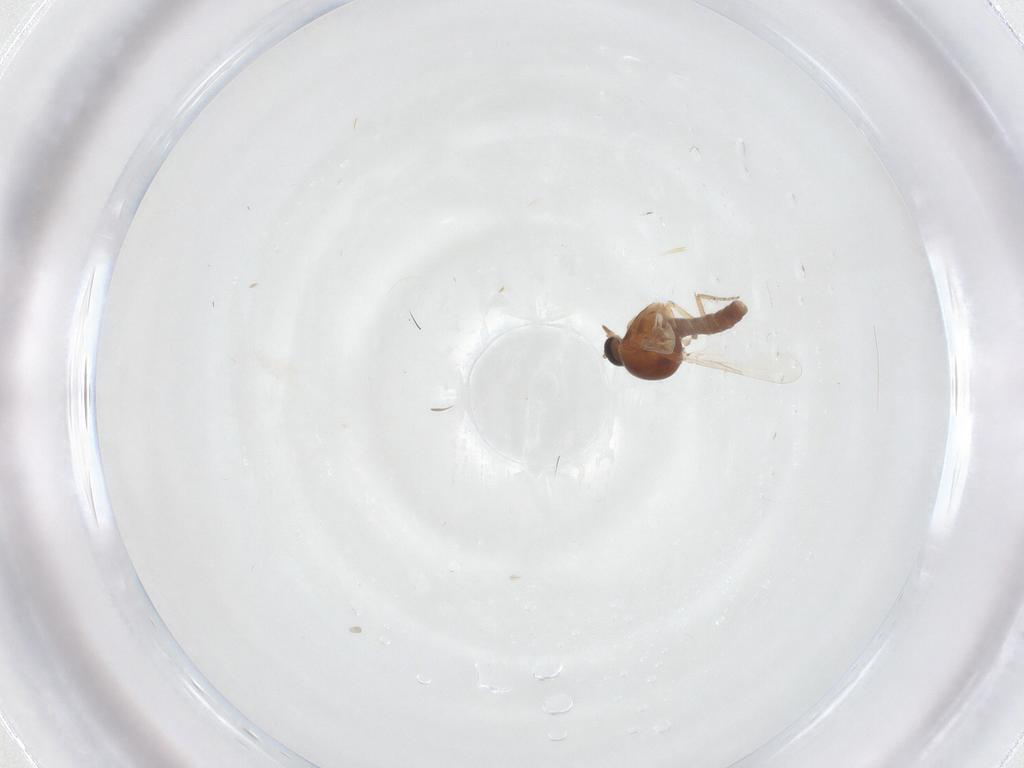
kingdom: Animalia
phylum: Arthropoda
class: Insecta
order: Diptera
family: Ceratopogonidae
